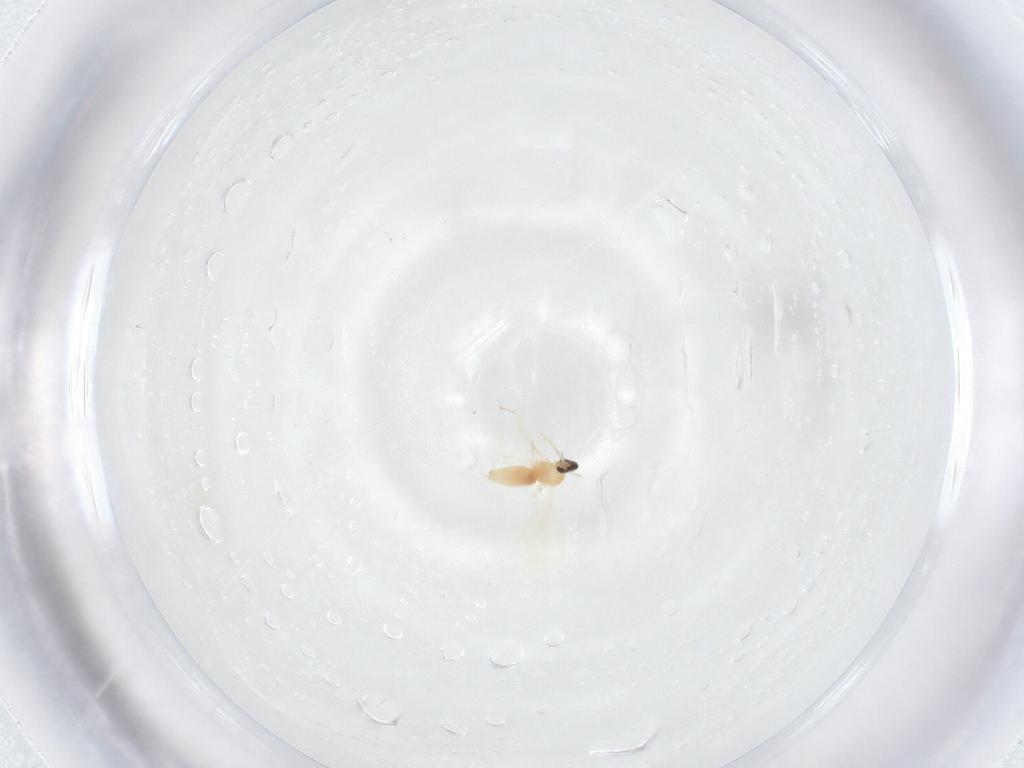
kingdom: Animalia
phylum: Arthropoda
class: Insecta
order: Diptera
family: Cecidomyiidae
